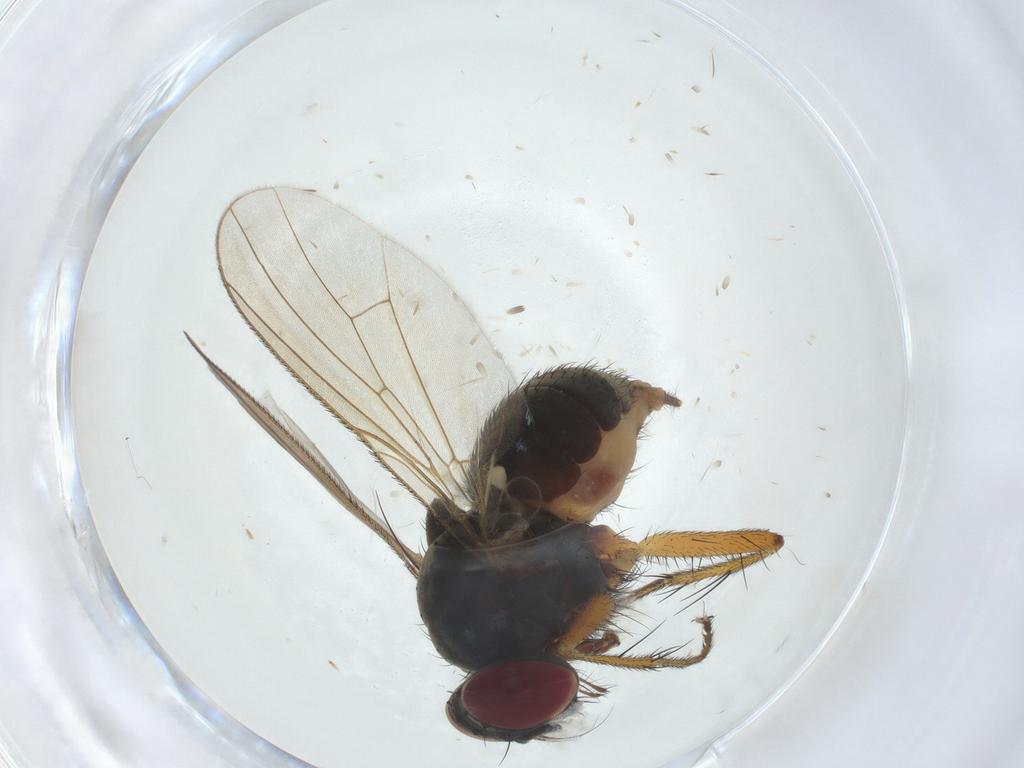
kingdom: Animalia
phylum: Arthropoda
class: Insecta
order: Diptera
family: Muscidae
